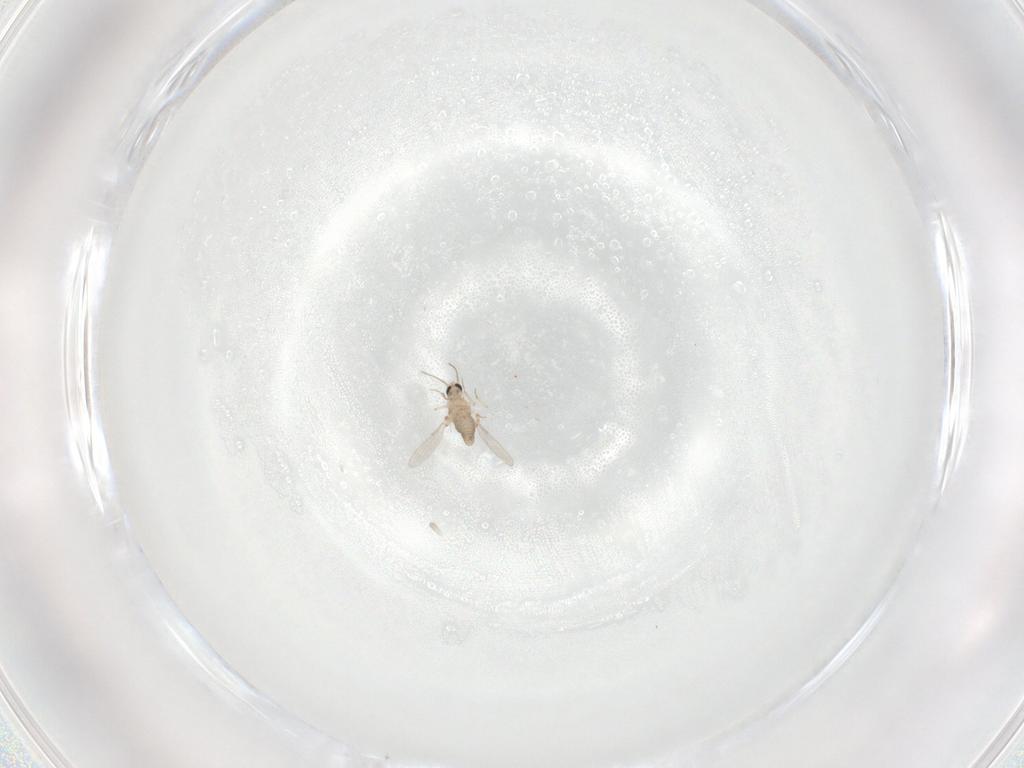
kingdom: Animalia
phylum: Arthropoda
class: Insecta
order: Diptera
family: Ceratopogonidae
